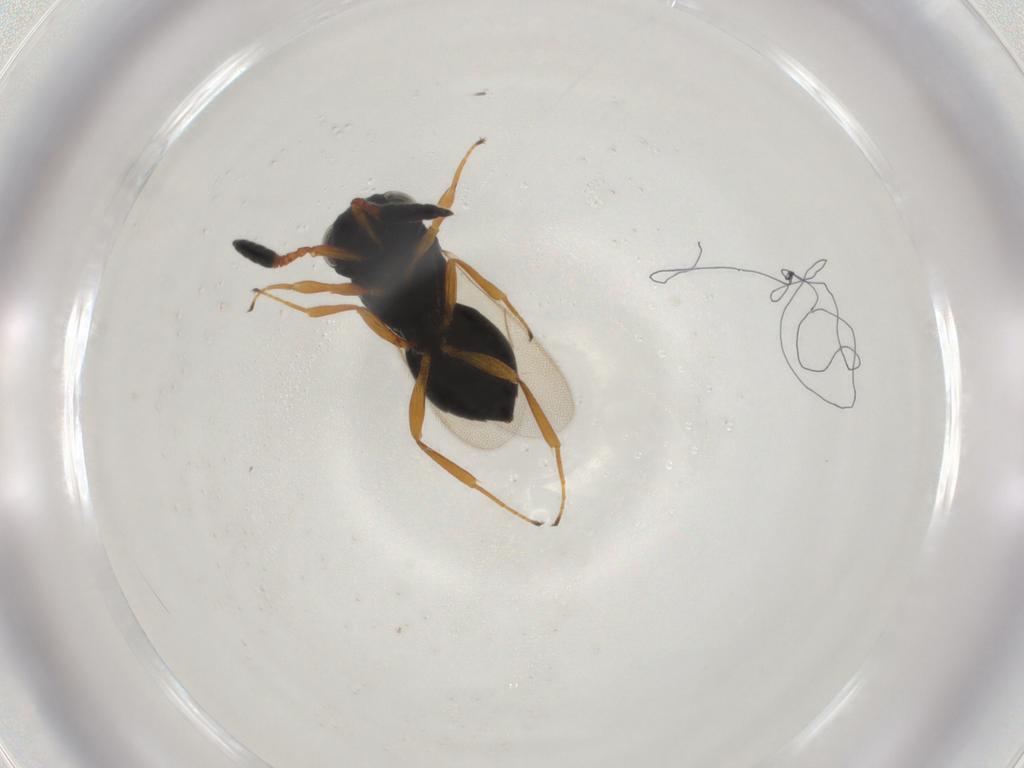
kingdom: Animalia
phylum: Arthropoda
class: Insecta
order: Hymenoptera
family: Scelionidae
